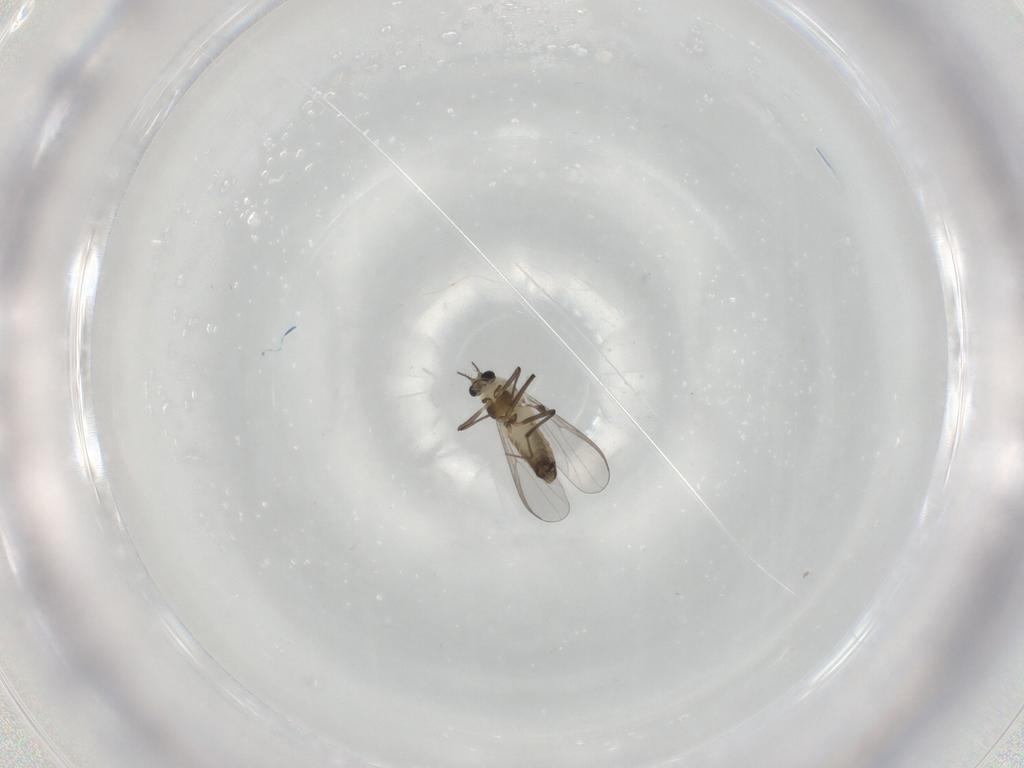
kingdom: Animalia
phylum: Arthropoda
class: Insecta
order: Diptera
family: Chironomidae
